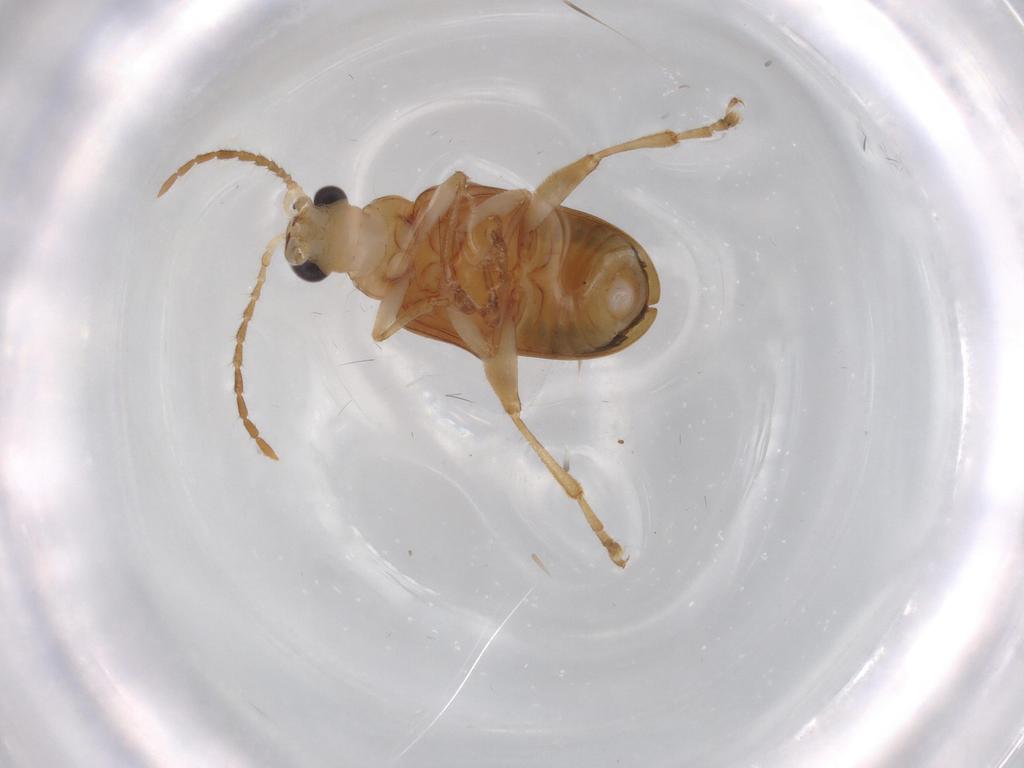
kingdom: Animalia
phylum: Arthropoda
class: Insecta
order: Coleoptera
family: Chrysomelidae
